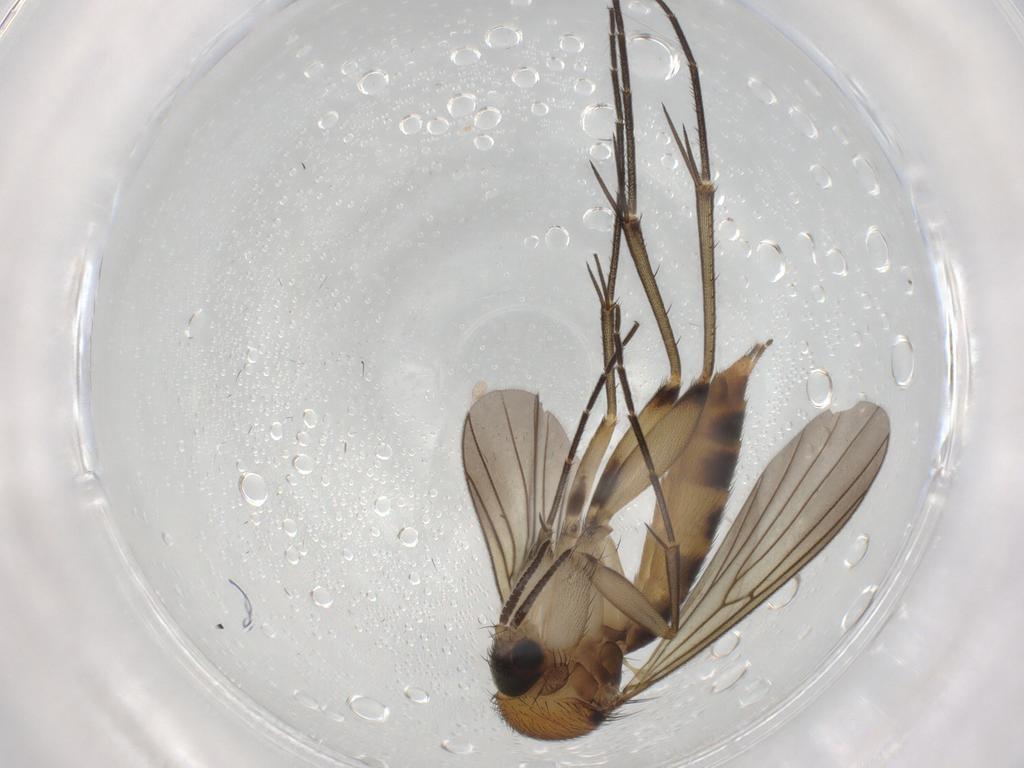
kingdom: Animalia
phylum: Arthropoda
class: Insecta
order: Diptera
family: Mycetophilidae
